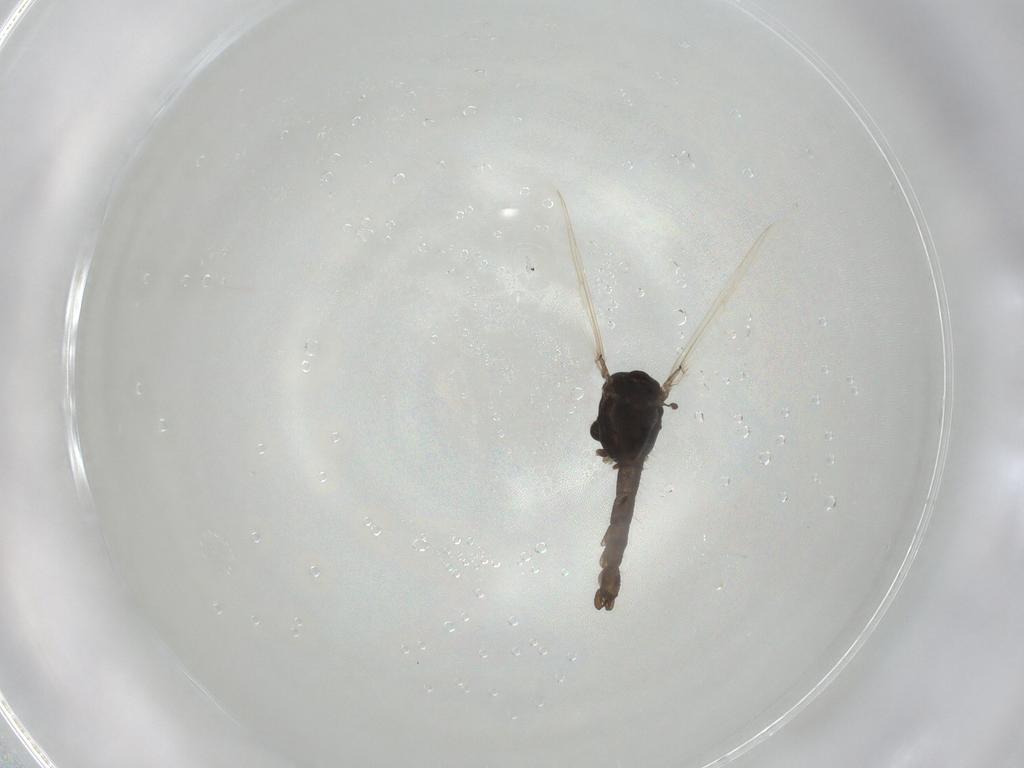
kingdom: Animalia
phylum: Arthropoda
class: Insecta
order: Diptera
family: Chironomidae
